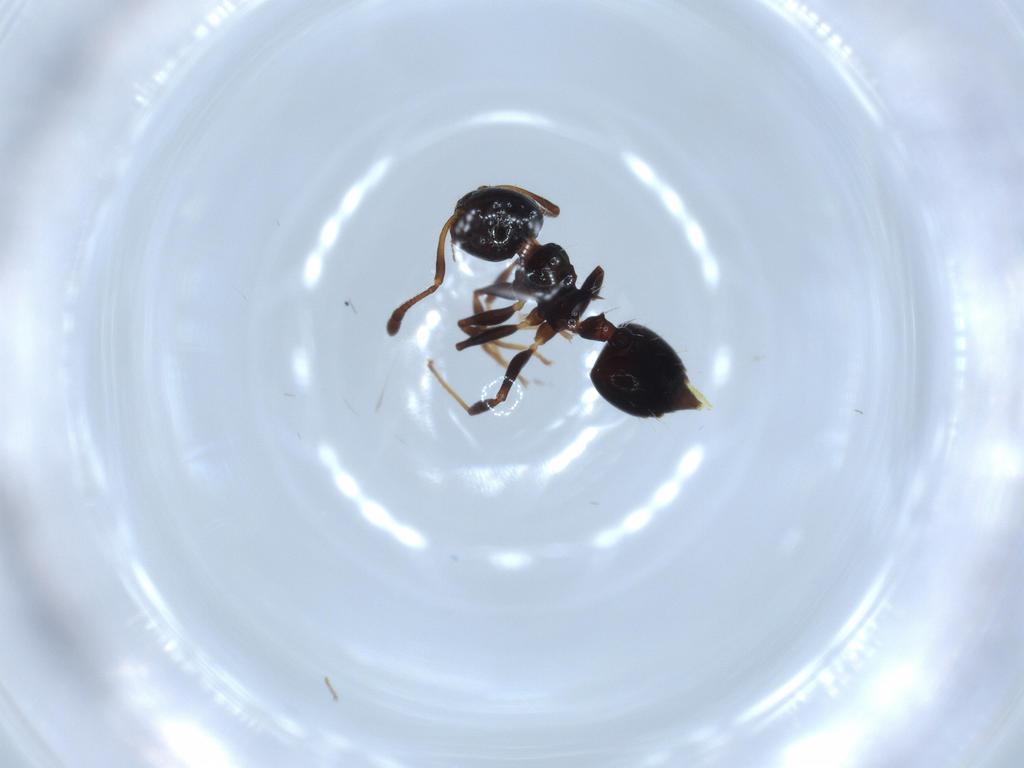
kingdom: Animalia
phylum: Arthropoda
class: Insecta
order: Hymenoptera
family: Formicidae
